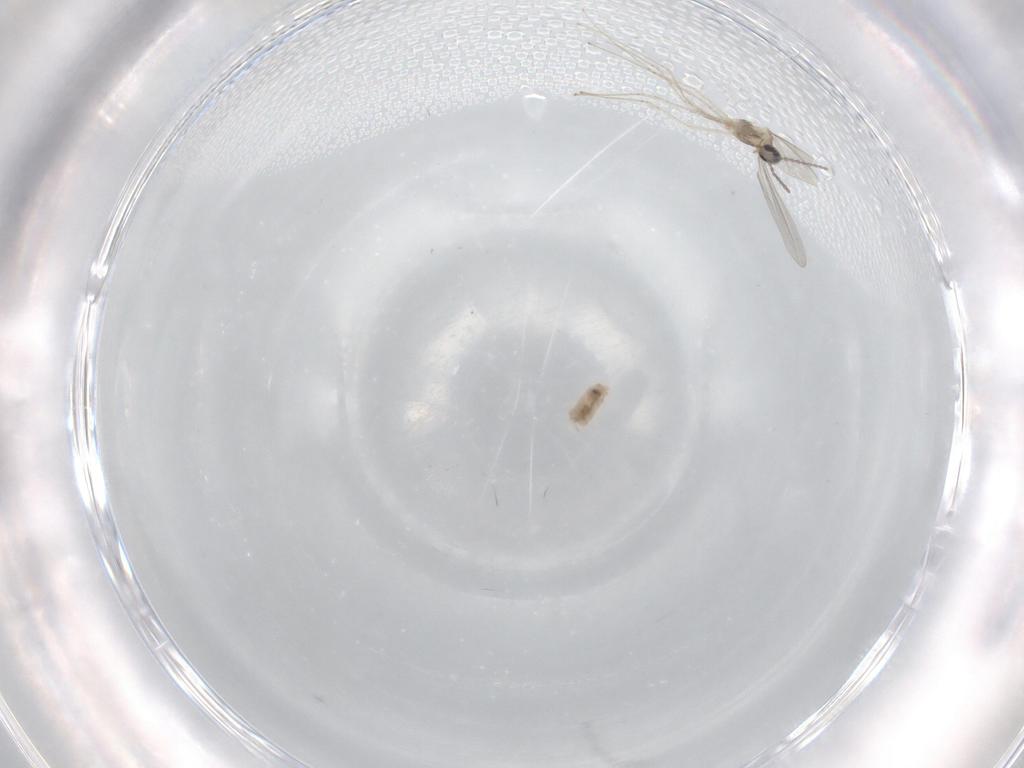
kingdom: Animalia
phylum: Arthropoda
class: Insecta
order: Diptera
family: Cecidomyiidae
